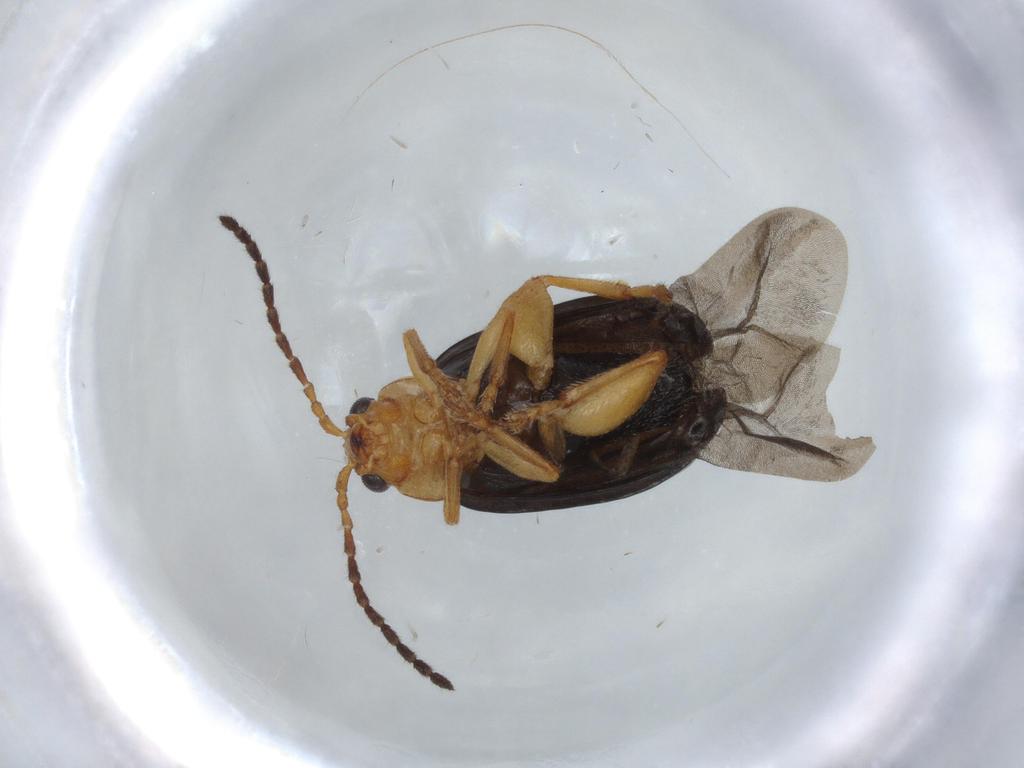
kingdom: Animalia
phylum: Arthropoda
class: Insecta
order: Coleoptera
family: Chrysomelidae
